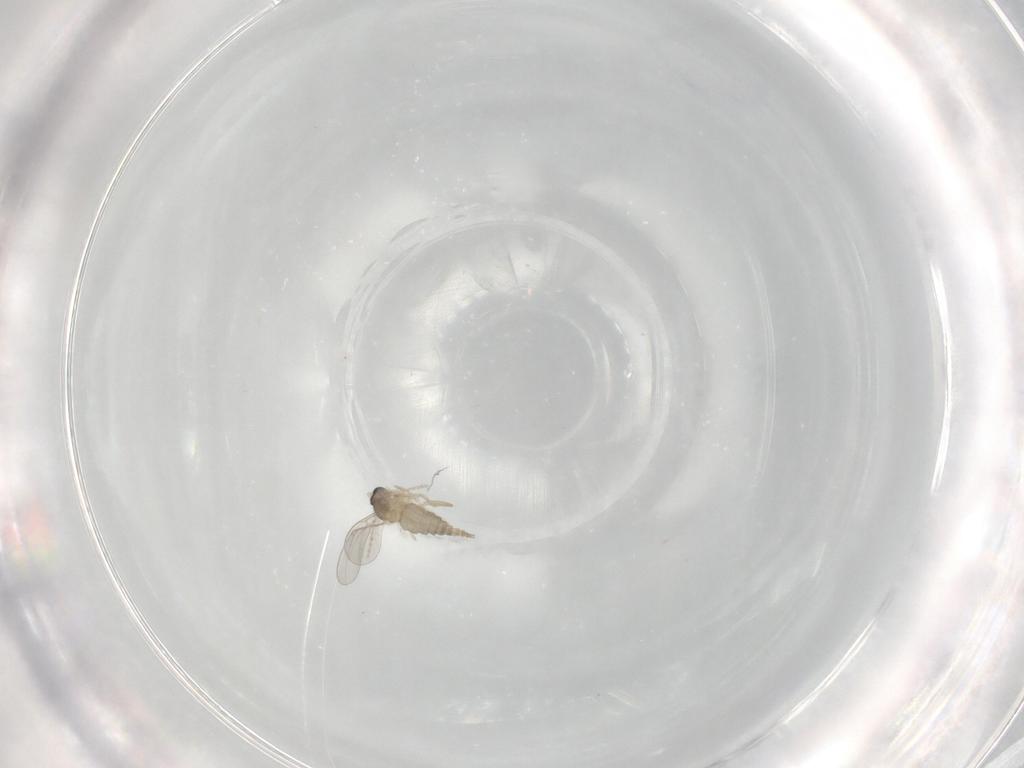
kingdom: Animalia
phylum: Arthropoda
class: Insecta
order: Diptera
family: Cecidomyiidae
